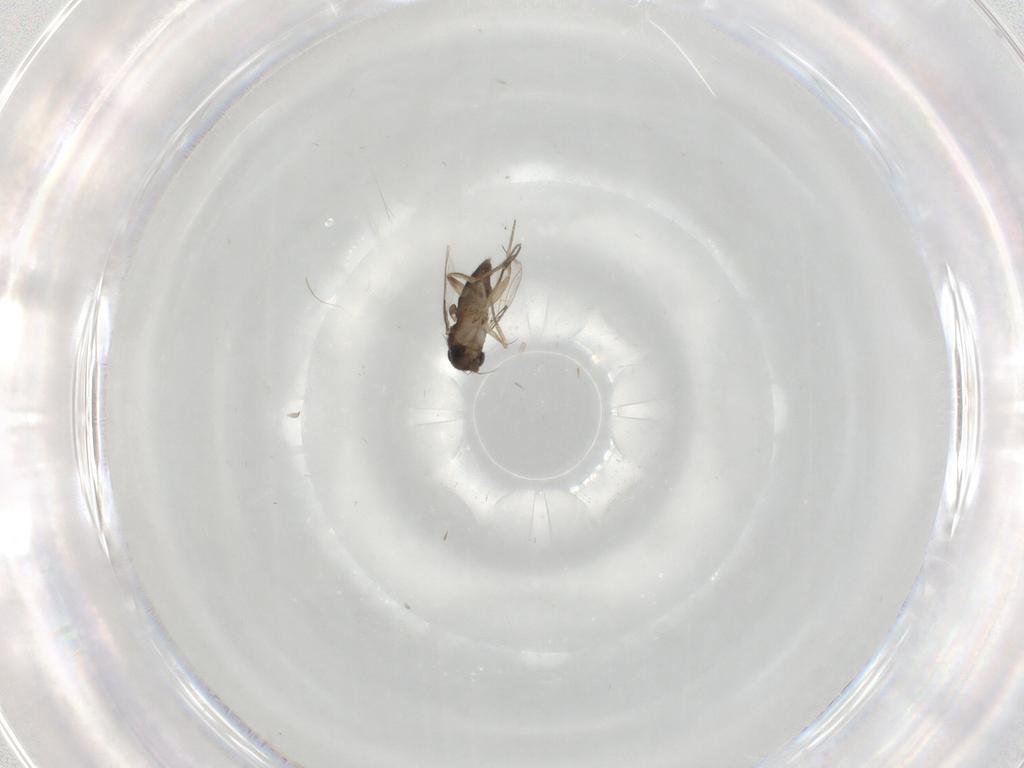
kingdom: Animalia
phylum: Arthropoda
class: Insecta
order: Diptera
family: Phoridae
